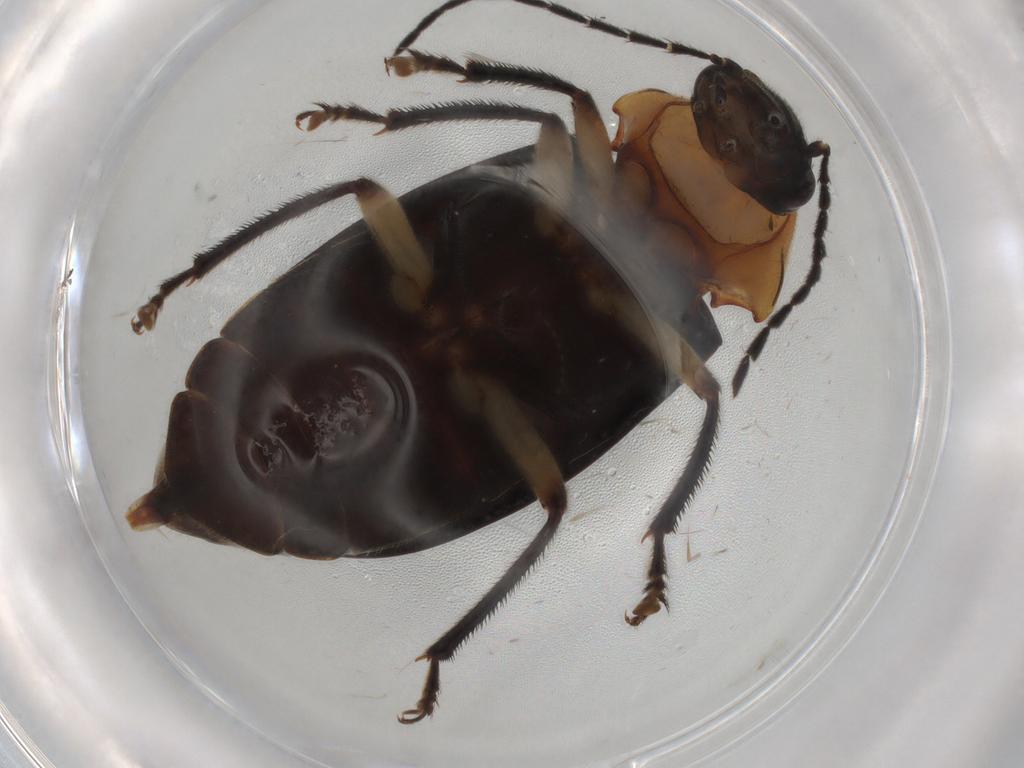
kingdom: Animalia
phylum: Arthropoda
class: Insecta
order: Coleoptera
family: Ptilodactylidae
